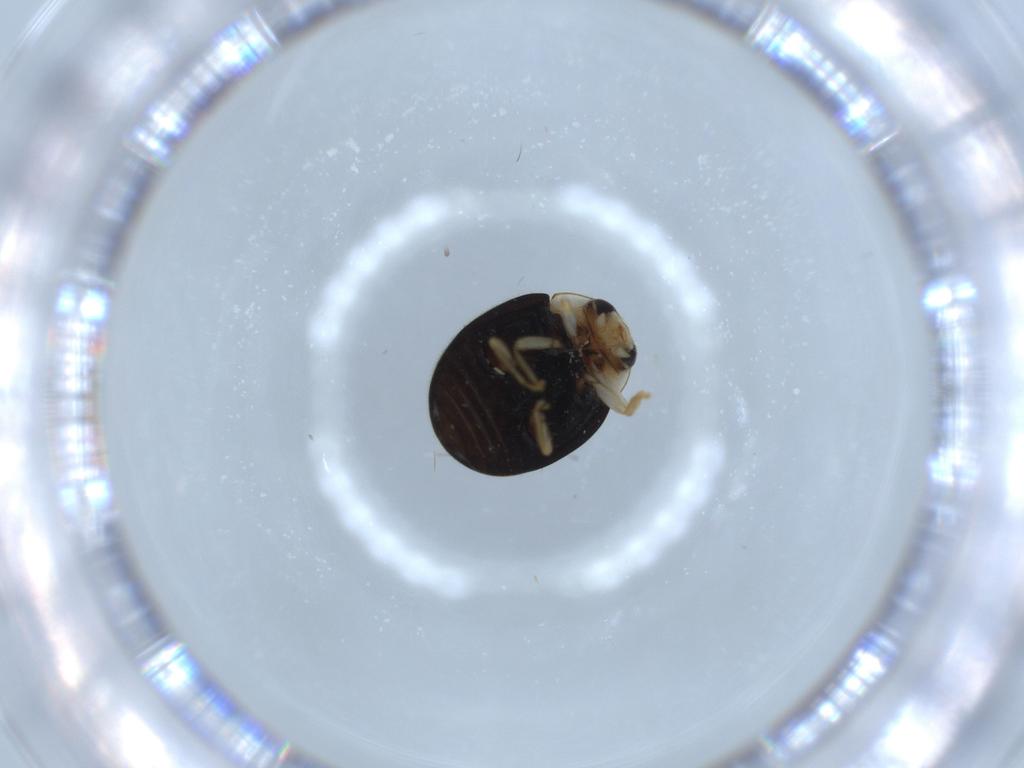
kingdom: Animalia
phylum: Arthropoda
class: Insecta
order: Coleoptera
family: Coccinellidae
